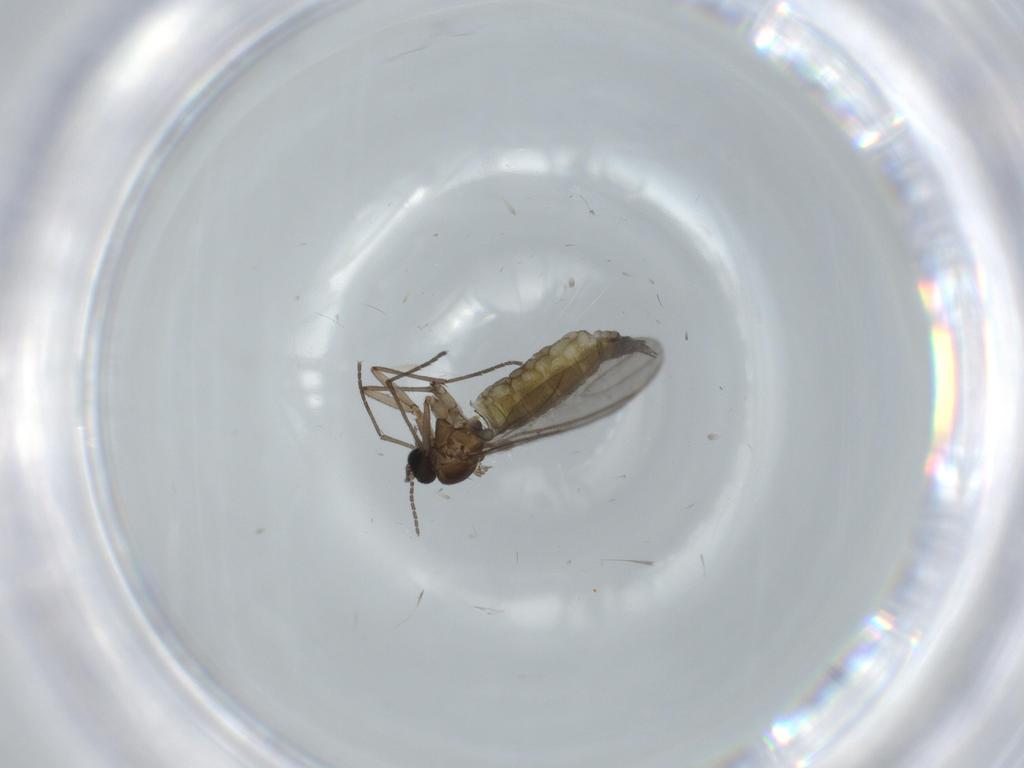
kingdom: Animalia
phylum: Arthropoda
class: Insecta
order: Diptera
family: Sciaridae
